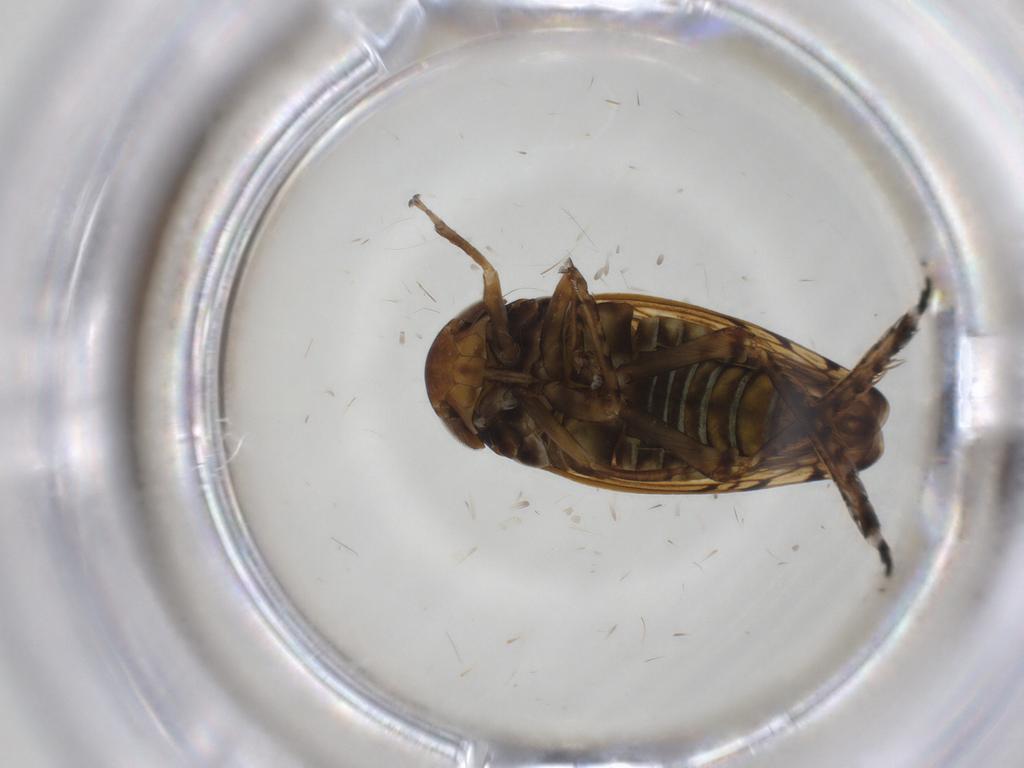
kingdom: Animalia
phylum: Arthropoda
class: Insecta
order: Hemiptera
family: Cicadellidae
